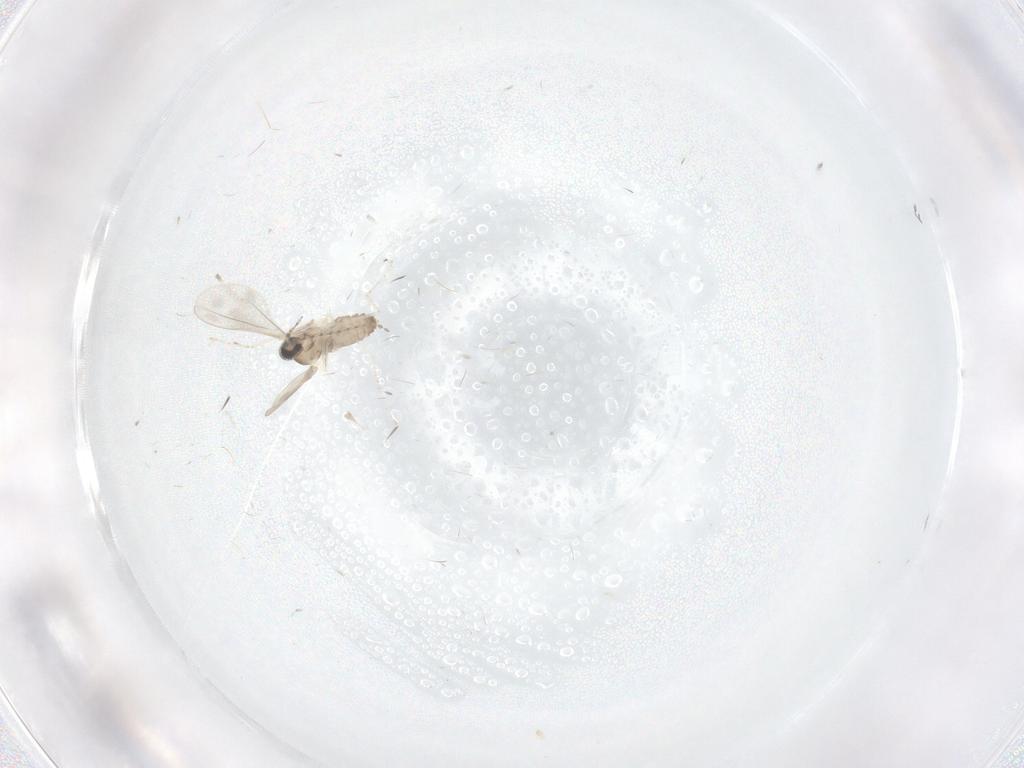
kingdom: Animalia
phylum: Arthropoda
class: Insecta
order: Diptera
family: Cecidomyiidae
